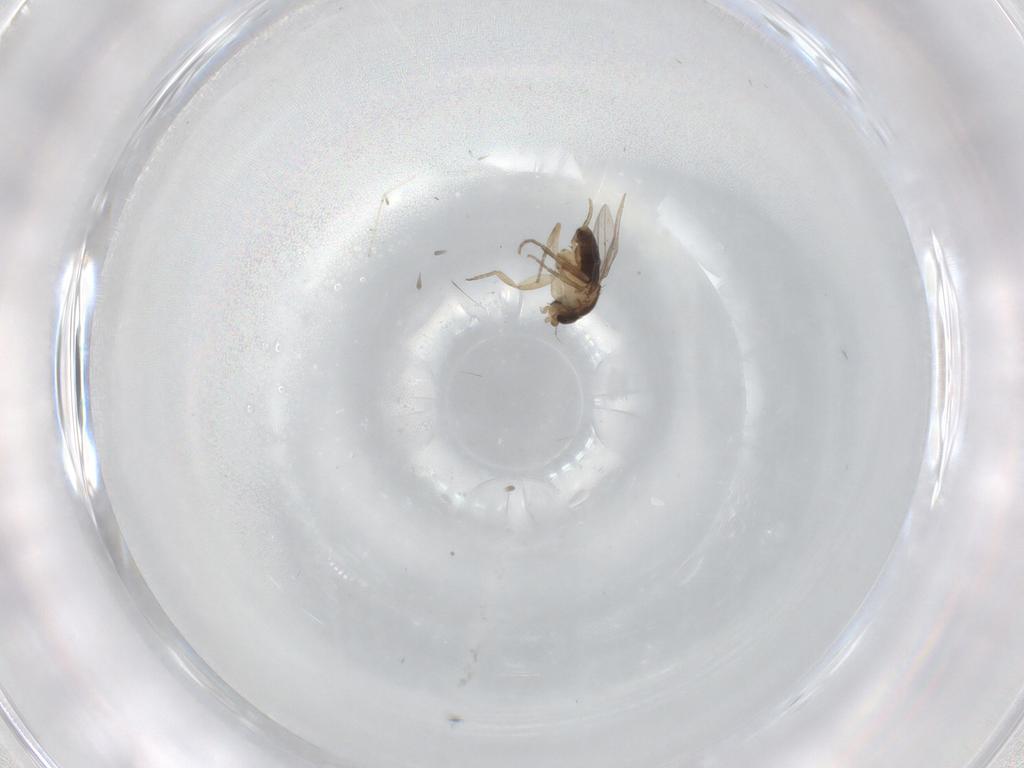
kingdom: Animalia
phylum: Arthropoda
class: Insecta
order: Diptera
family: Phoridae
